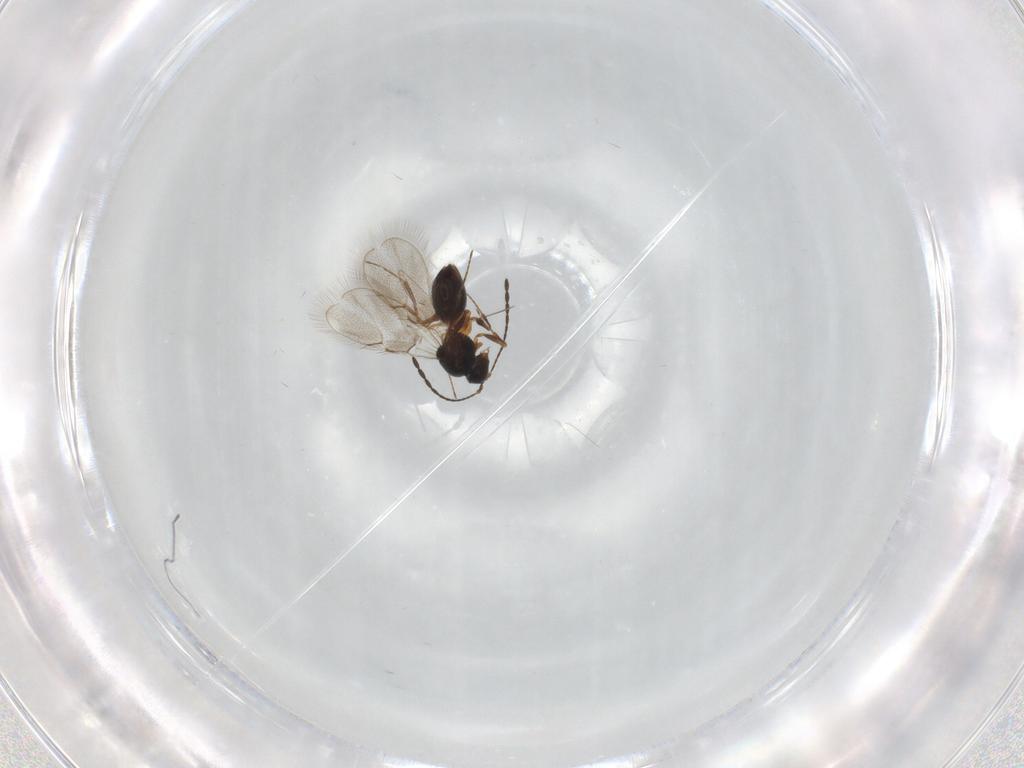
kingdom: Animalia
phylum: Arthropoda
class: Insecta
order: Hymenoptera
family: Figitidae
